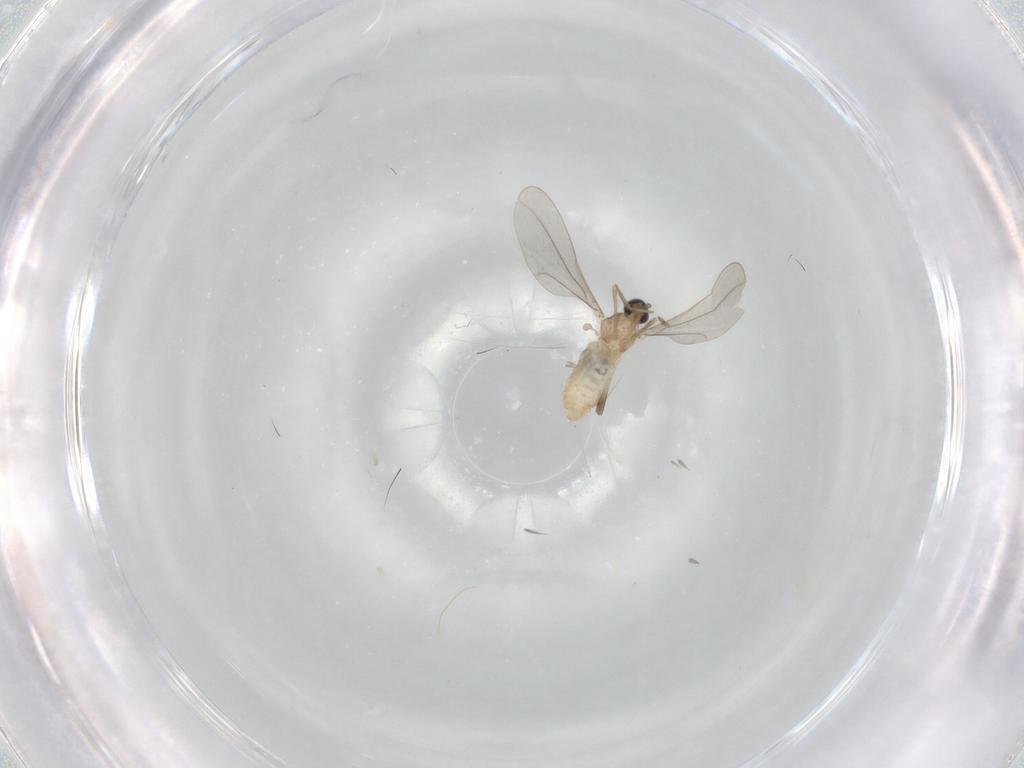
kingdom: Animalia
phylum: Arthropoda
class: Insecta
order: Diptera
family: Cecidomyiidae
